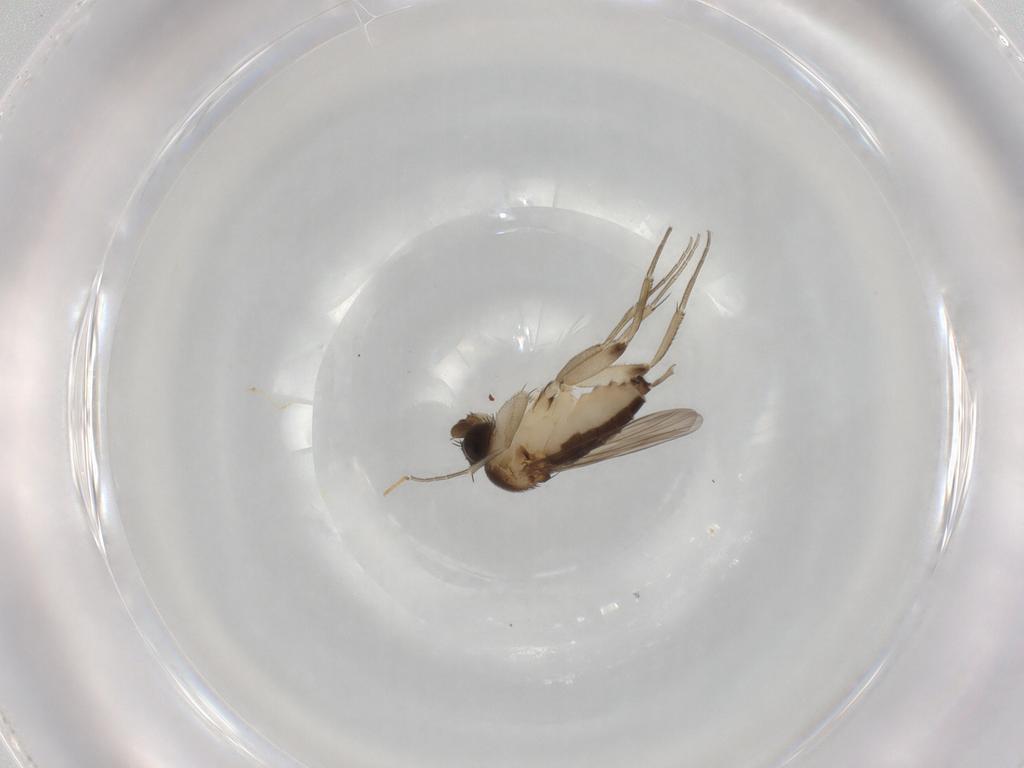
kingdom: Animalia
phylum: Arthropoda
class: Insecta
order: Diptera
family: Phoridae
